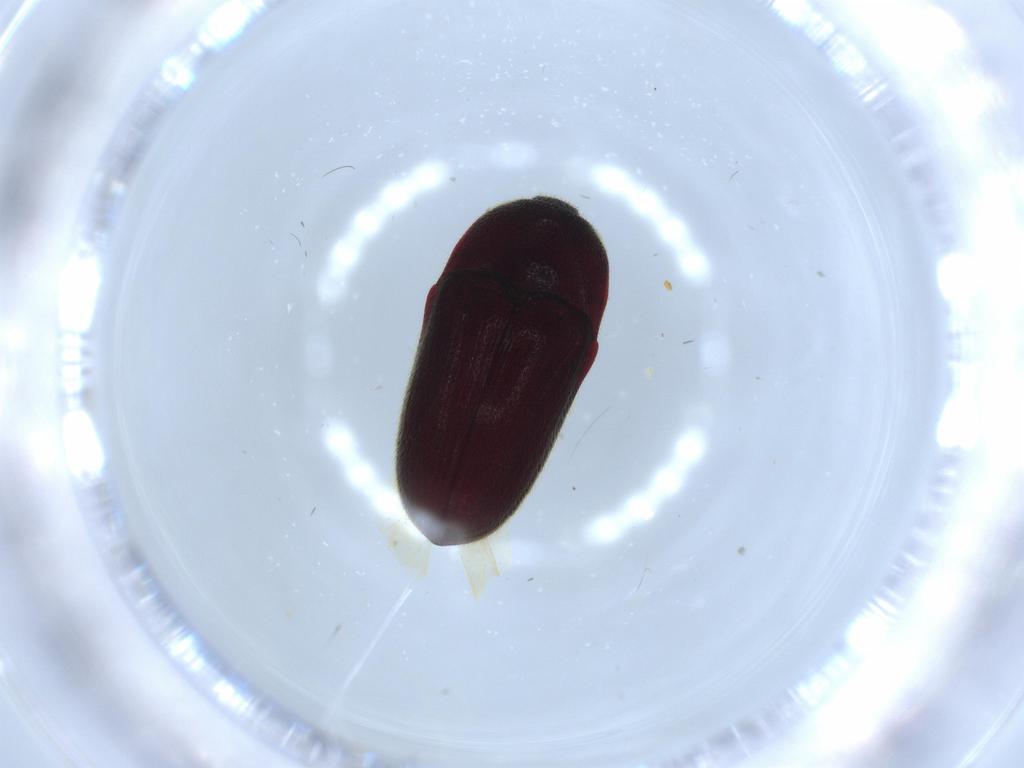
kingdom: Animalia
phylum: Arthropoda
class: Insecta
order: Coleoptera
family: Throscidae
